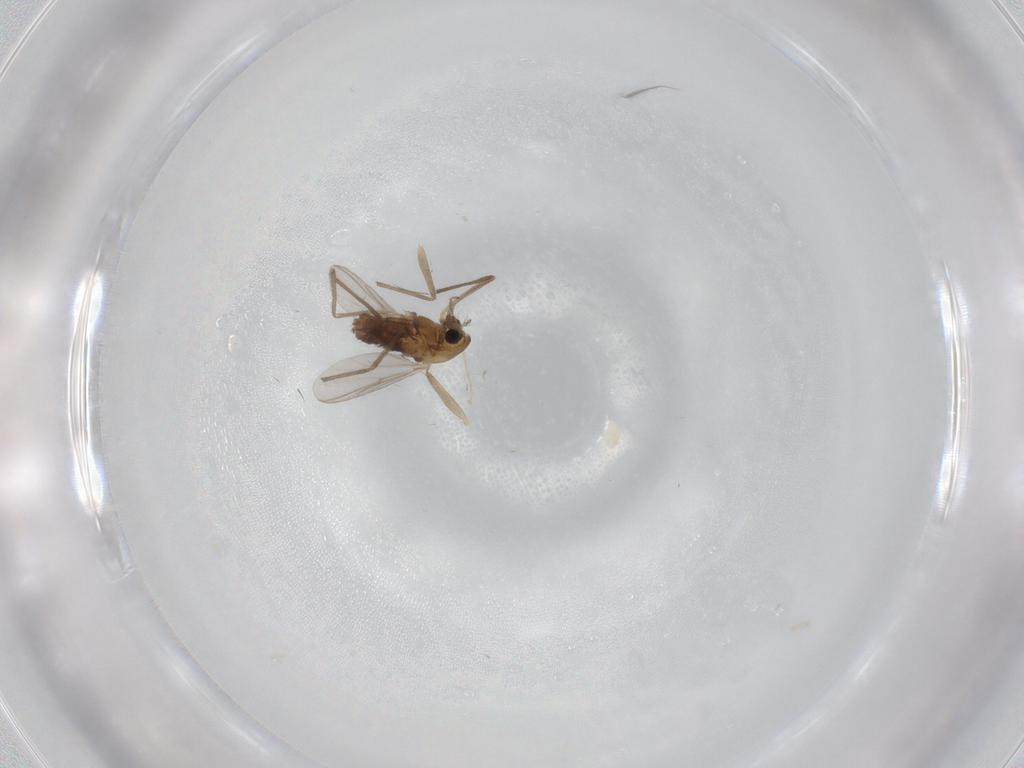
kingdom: Animalia
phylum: Arthropoda
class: Insecta
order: Diptera
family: Chironomidae
